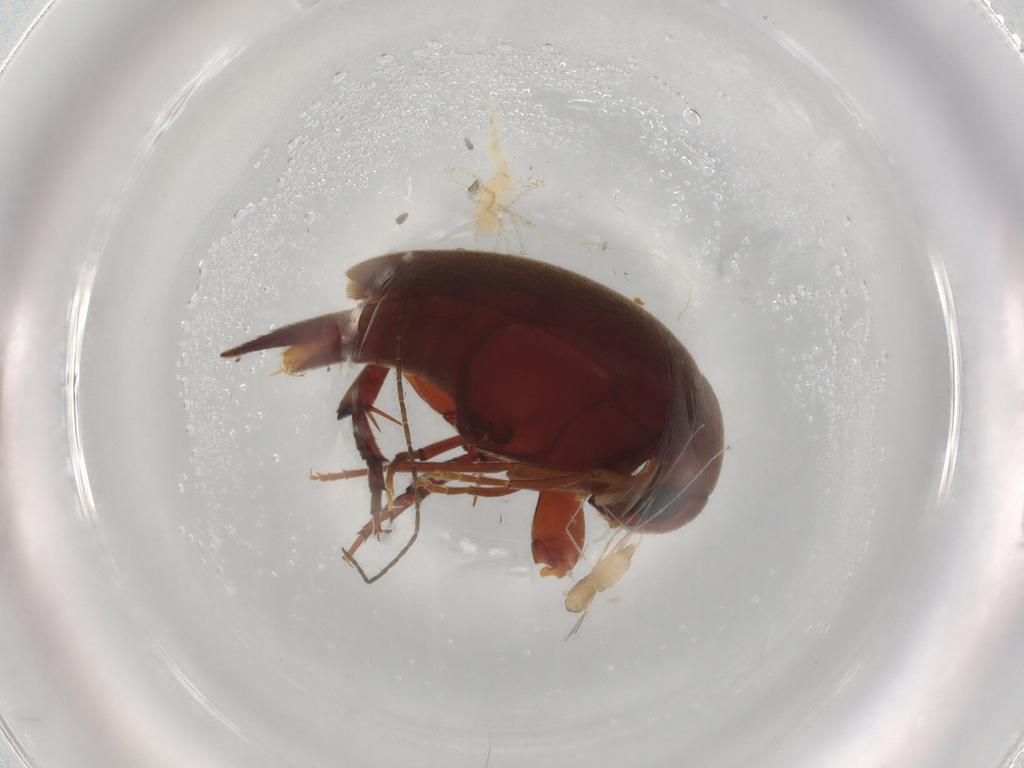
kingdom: Animalia
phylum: Arthropoda
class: Insecta
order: Coleoptera
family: Mordellidae
